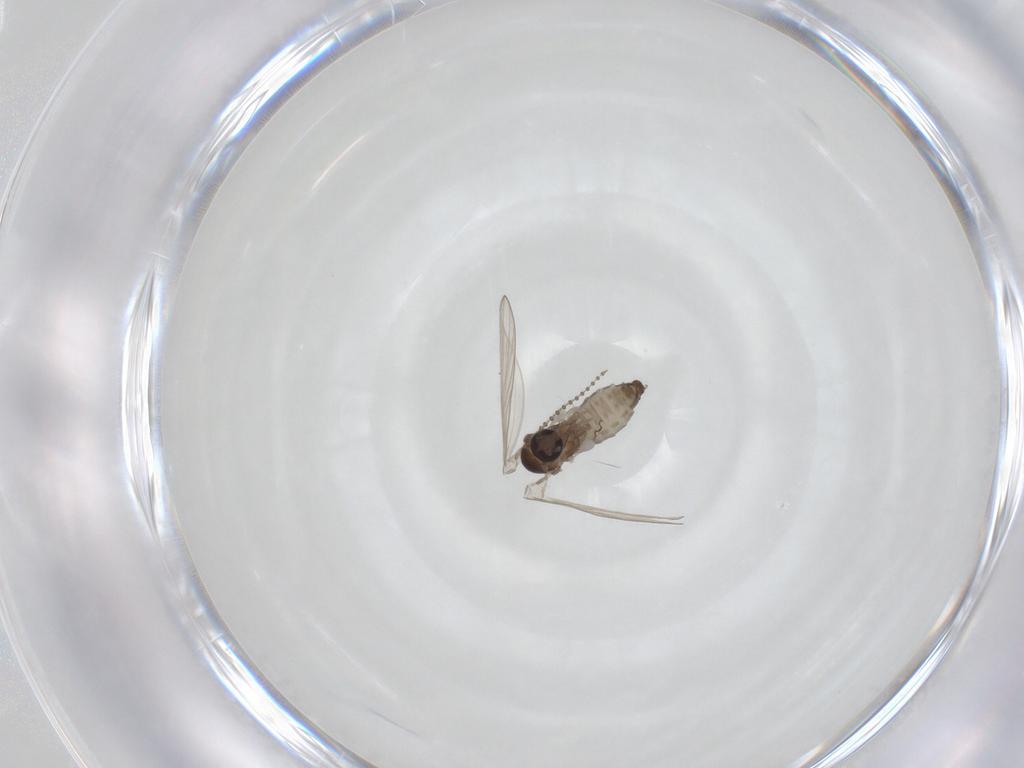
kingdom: Animalia
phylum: Arthropoda
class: Insecta
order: Diptera
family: Psychodidae
